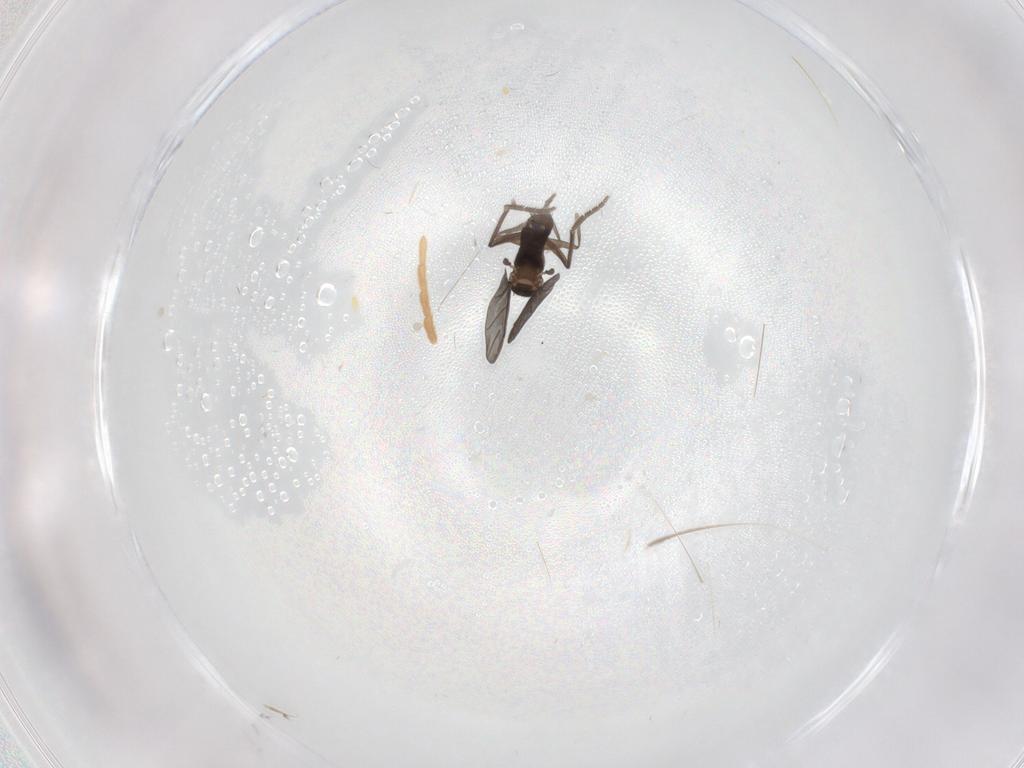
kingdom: Animalia
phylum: Arthropoda
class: Insecta
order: Diptera
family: Cecidomyiidae
